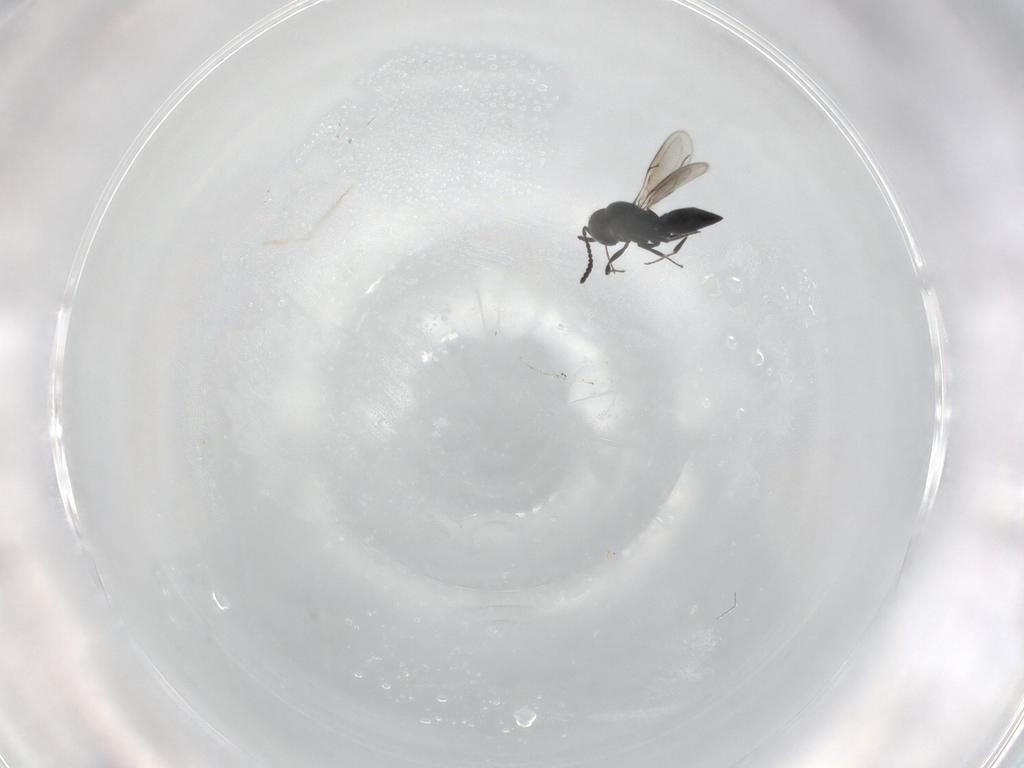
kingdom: Animalia
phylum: Arthropoda
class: Insecta
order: Hymenoptera
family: Scelionidae
